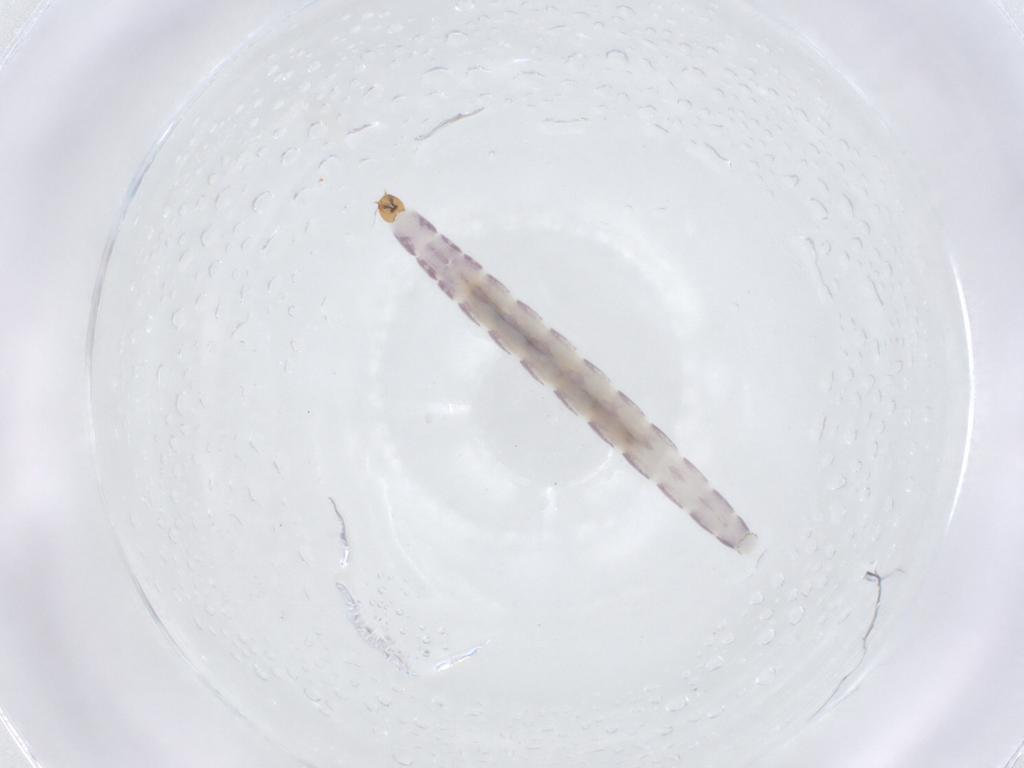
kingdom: Animalia
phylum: Arthropoda
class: Insecta
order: Diptera
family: Chironomidae
